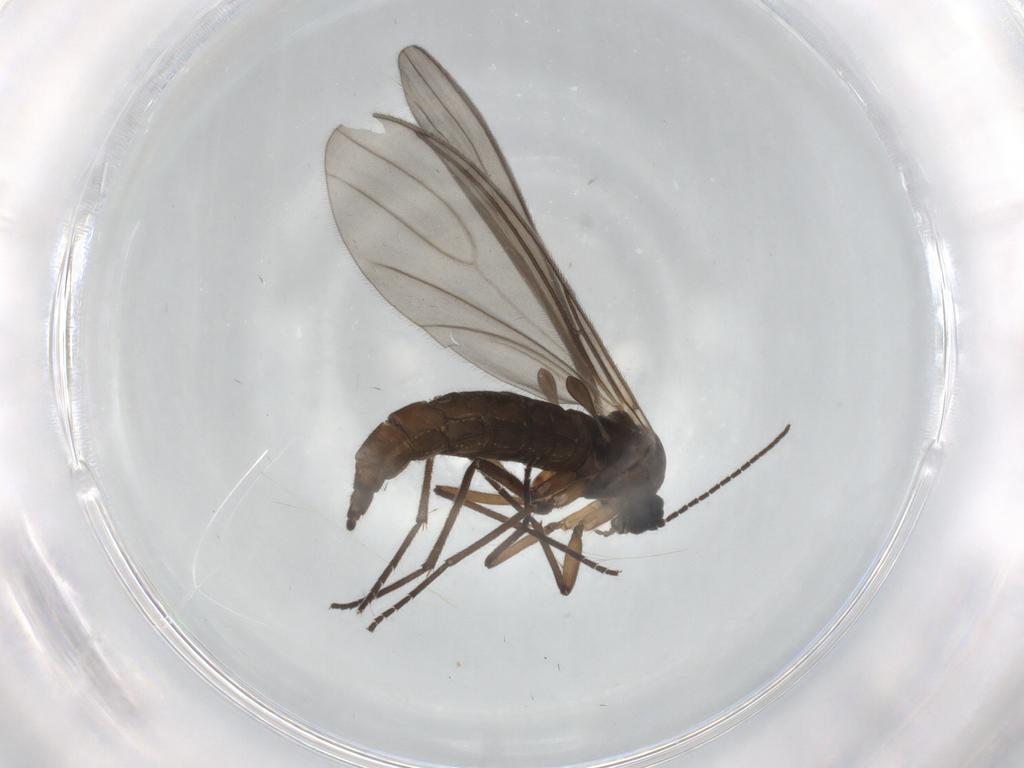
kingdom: Animalia
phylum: Arthropoda
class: Insecta
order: Diptera
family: Sciaridae
